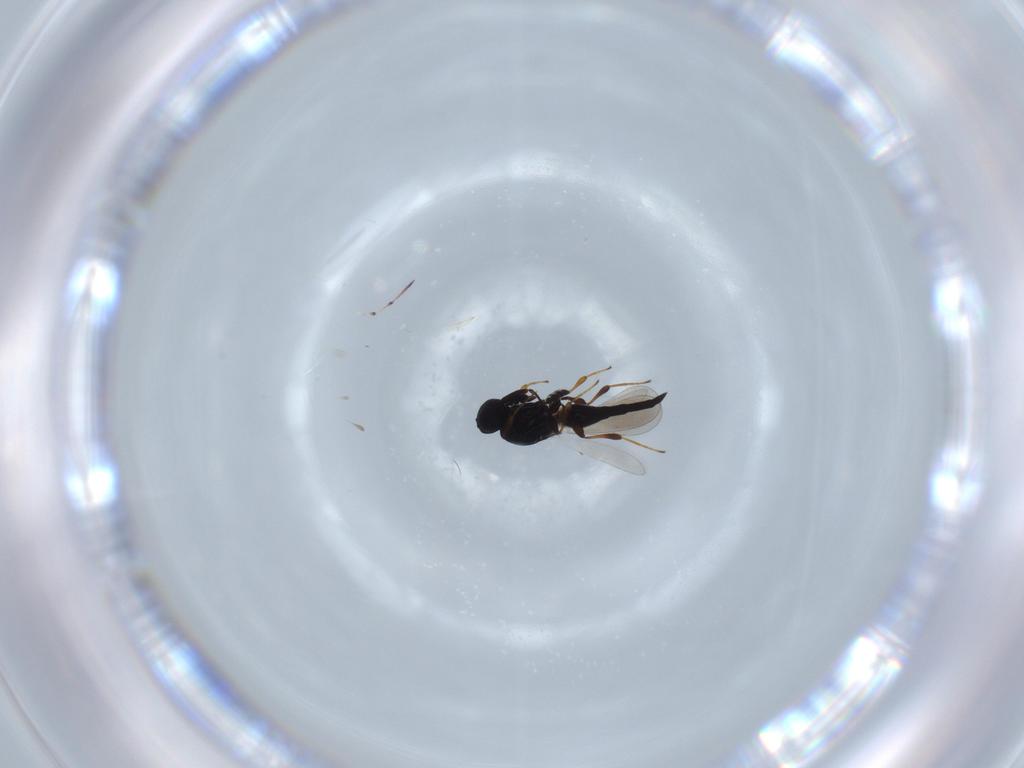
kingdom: Animalia
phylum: Arthropoda
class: Insecta
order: Hymenoptera
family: Platygastridae
